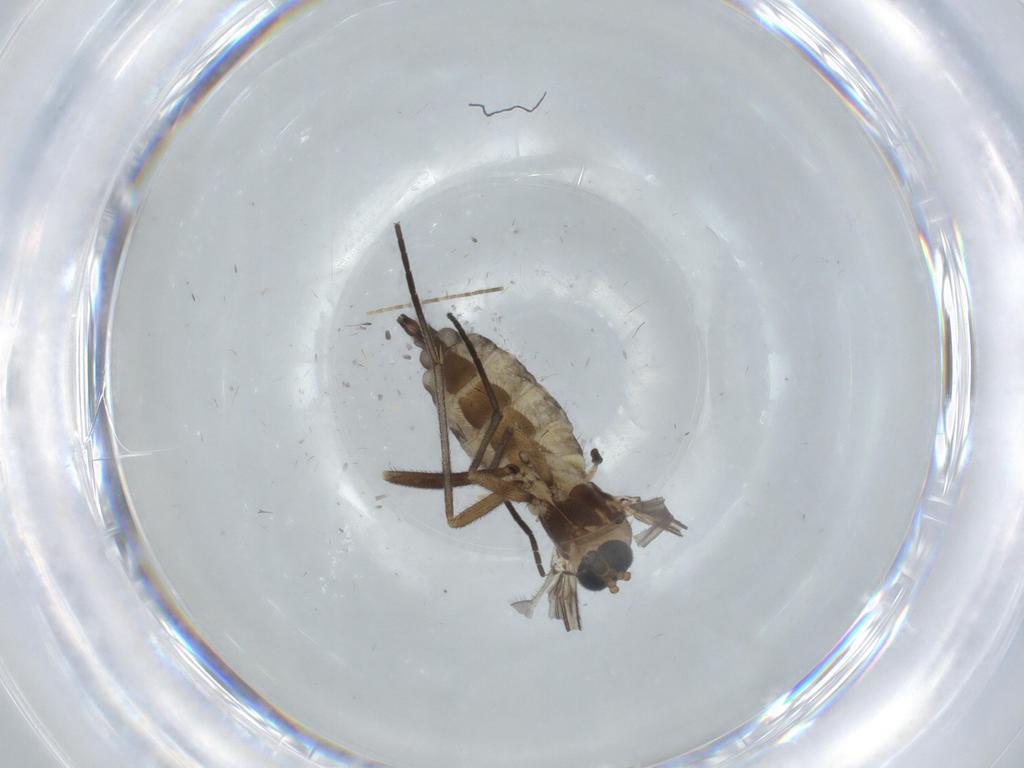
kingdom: Animalia
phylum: Arthropoda
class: Insecta
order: Diptera
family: Sciaridae
